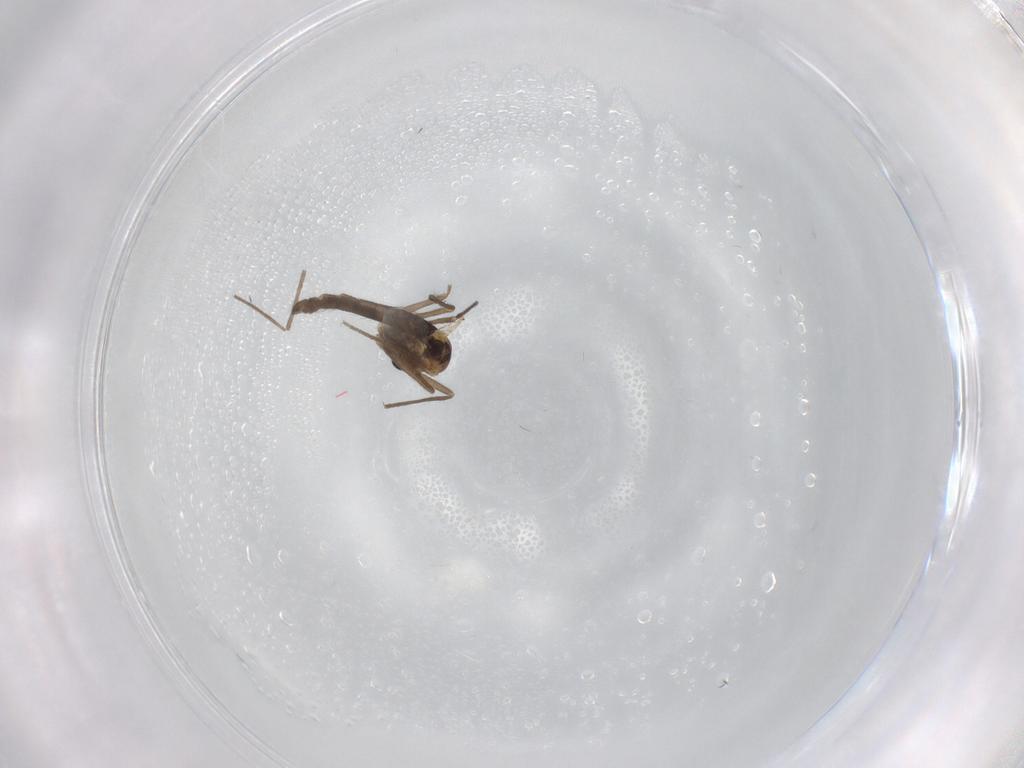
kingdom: Animalia
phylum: Arthropoda
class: Insecta
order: Diptera
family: Chironomidae
